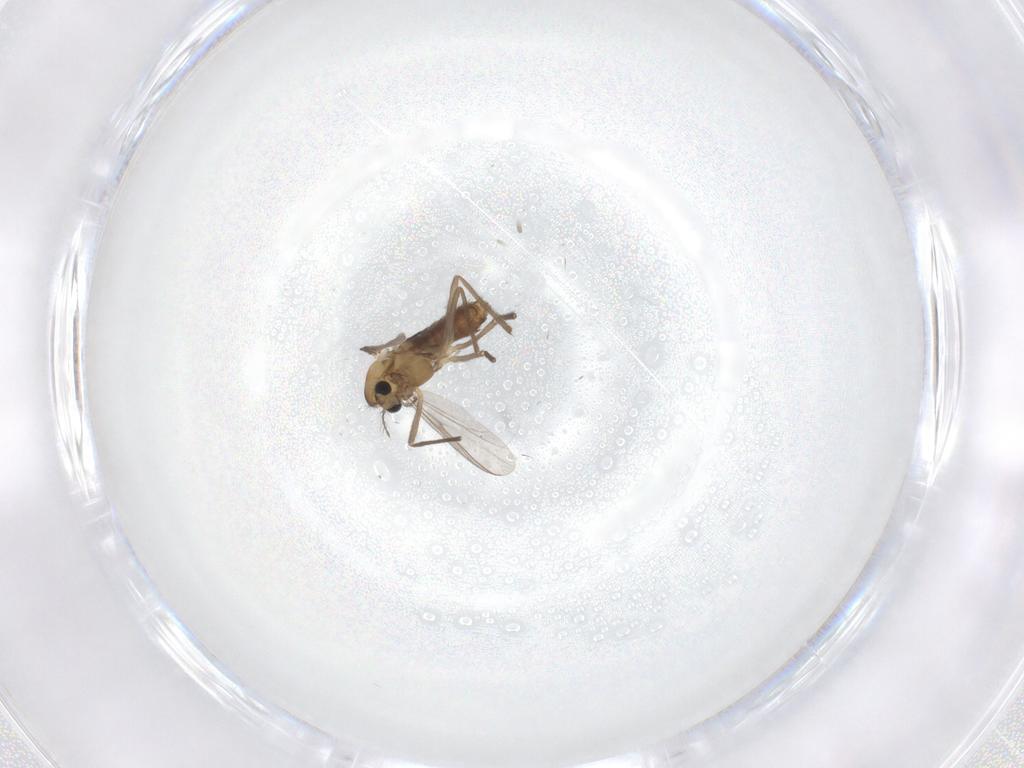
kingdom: Animalia
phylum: Arthropoda
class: Insecta
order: Diptera
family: Chironomidae
